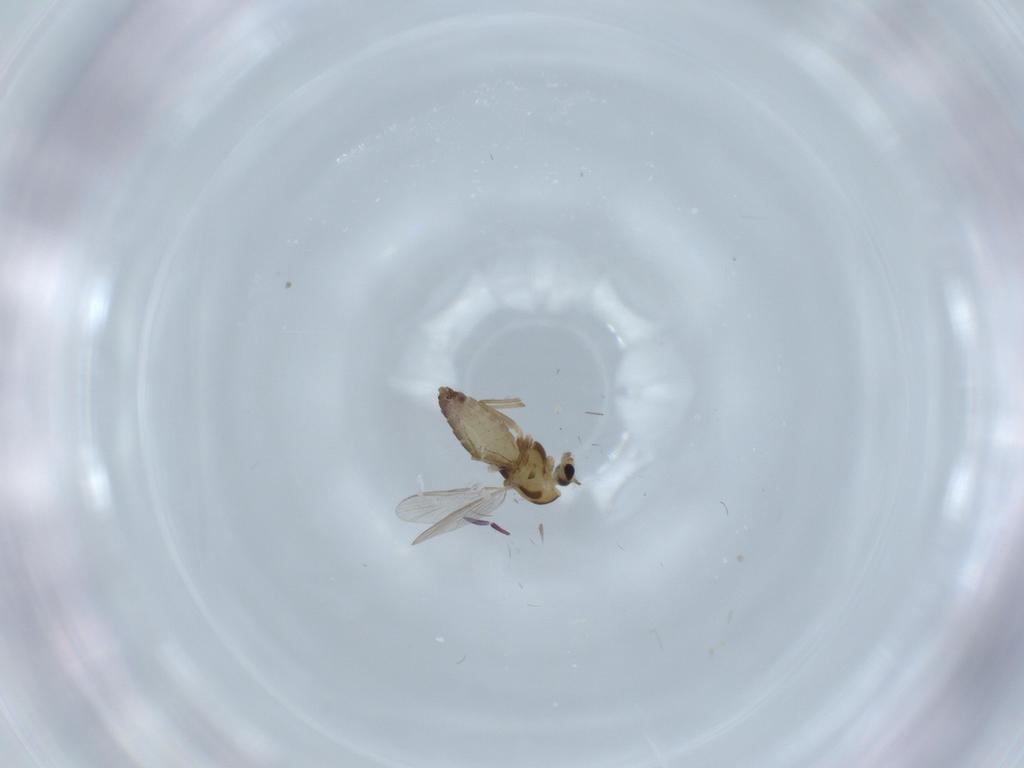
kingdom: Animalia
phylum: Arthropoda
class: Insecta
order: Diptera
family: Chironomidae
